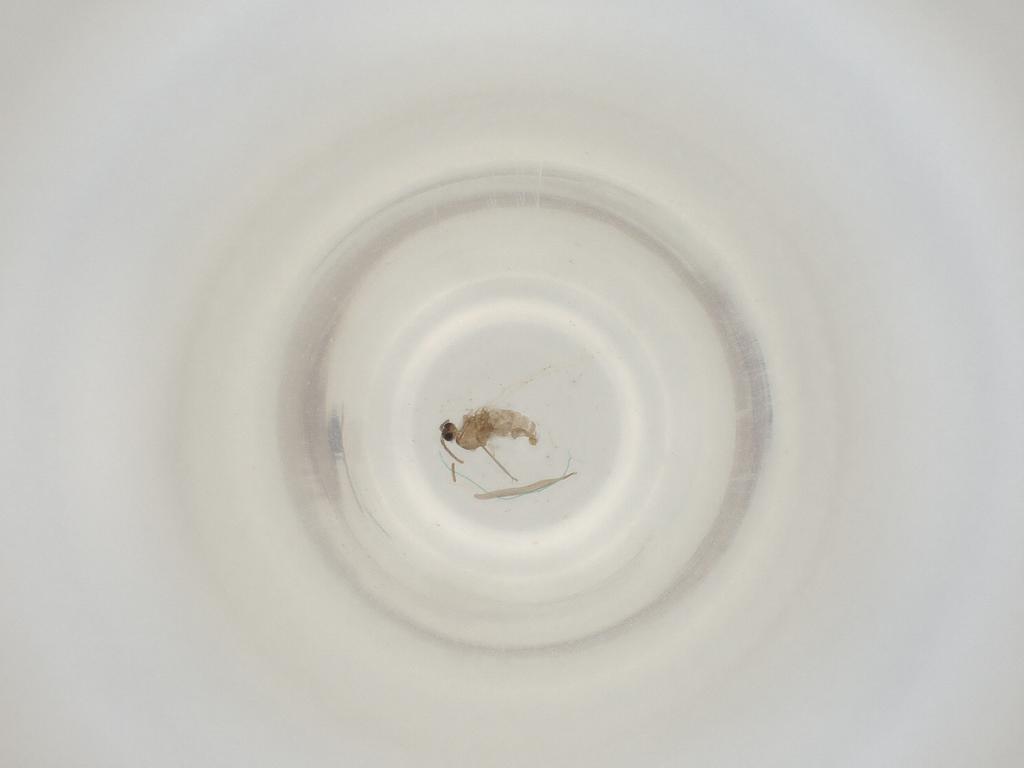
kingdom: Animalia
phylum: Arthropoda
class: Insecta
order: Diptera
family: Cecidomyiidae
